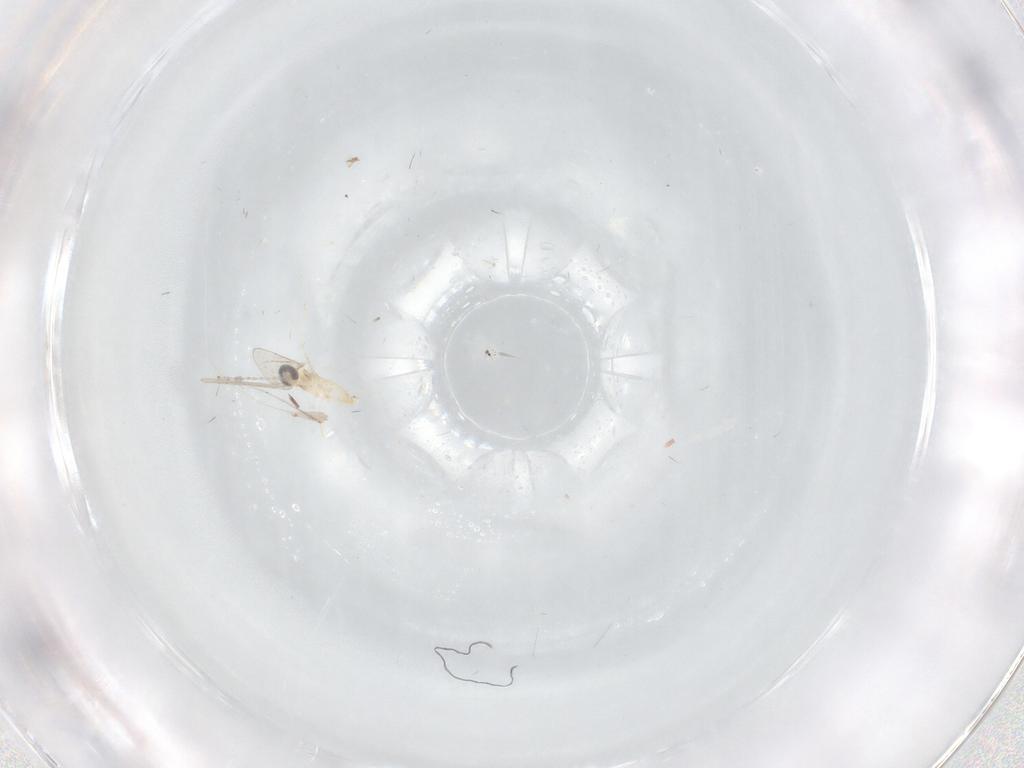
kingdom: Animalia
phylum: Arthropoda
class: Insecta
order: Diptera
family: Cecidomyiidae
